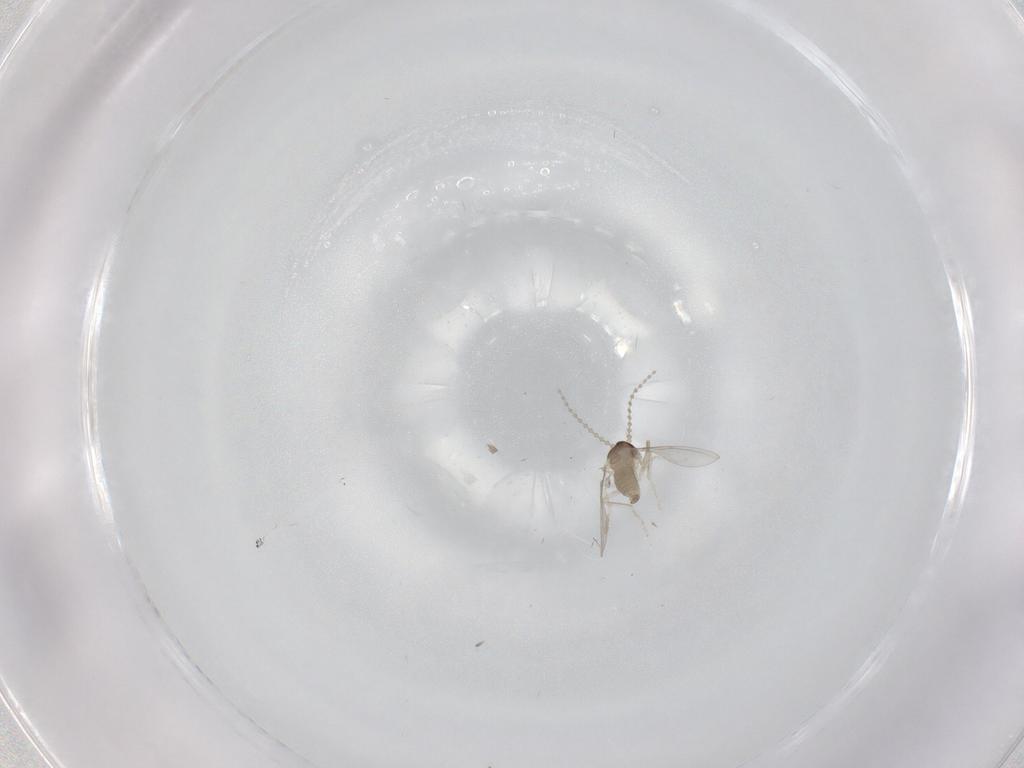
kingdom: Animalia
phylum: Arthropoda
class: Insecta
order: Diptera
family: Cecidomyiidae
